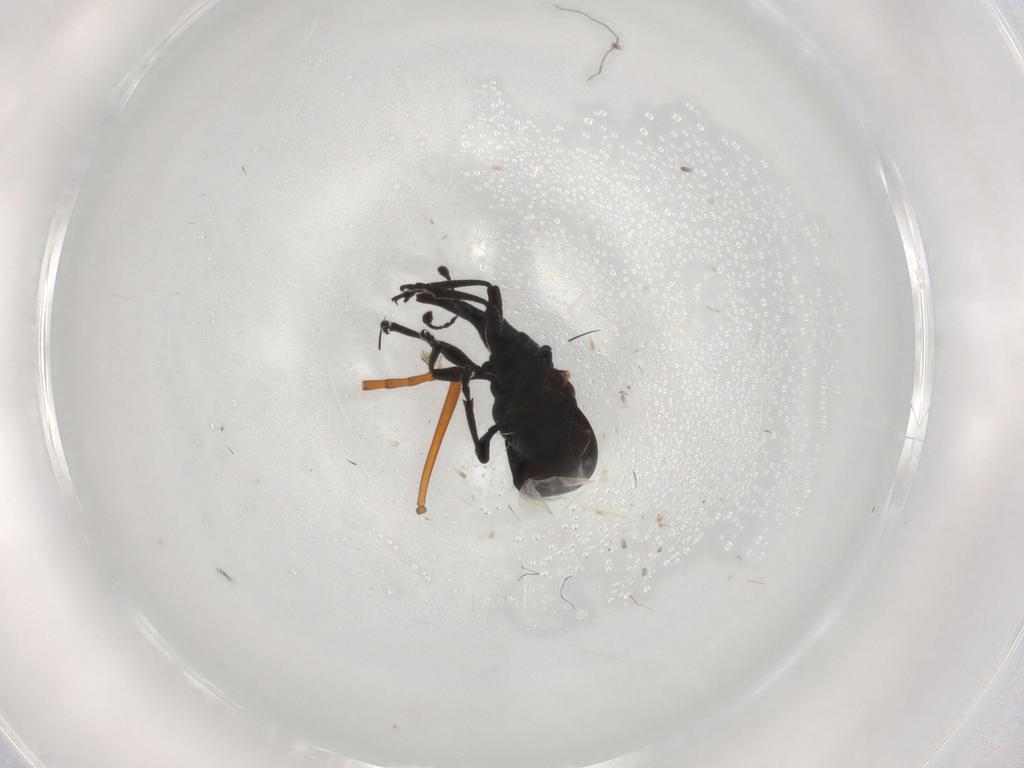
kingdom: Animalia
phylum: Arthropoda
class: Insecta
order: Coleoptera
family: Brentidae
